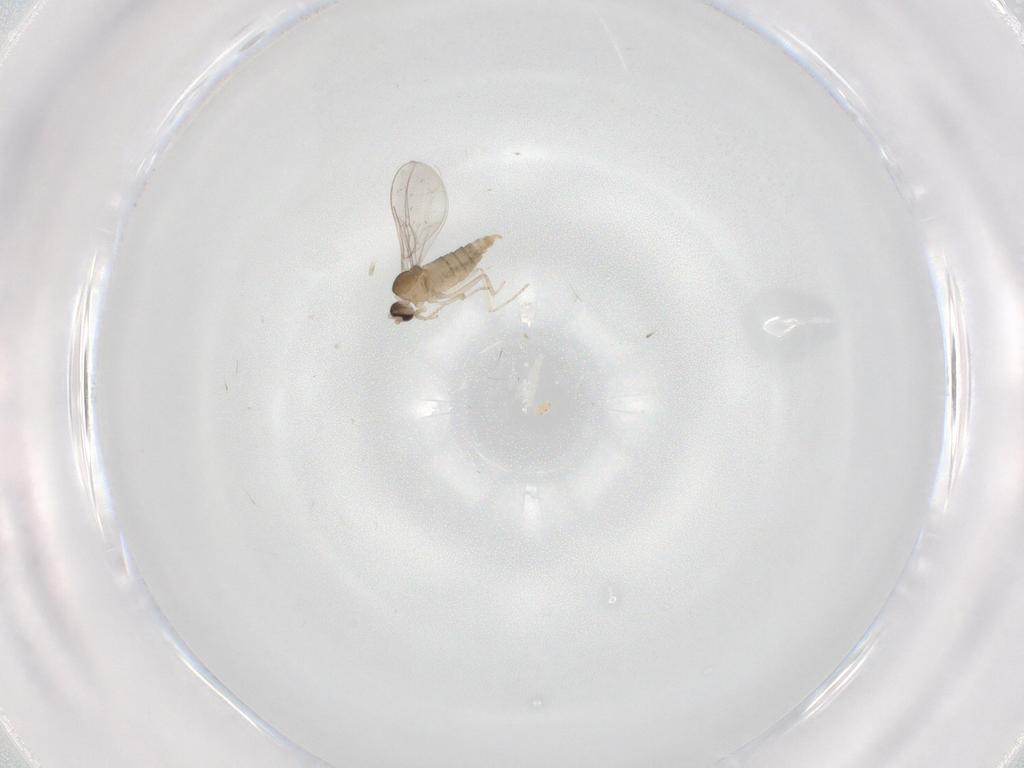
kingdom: Animalia
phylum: Arthropoda
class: Insecta
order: Diptera
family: Cecidomyiidae
